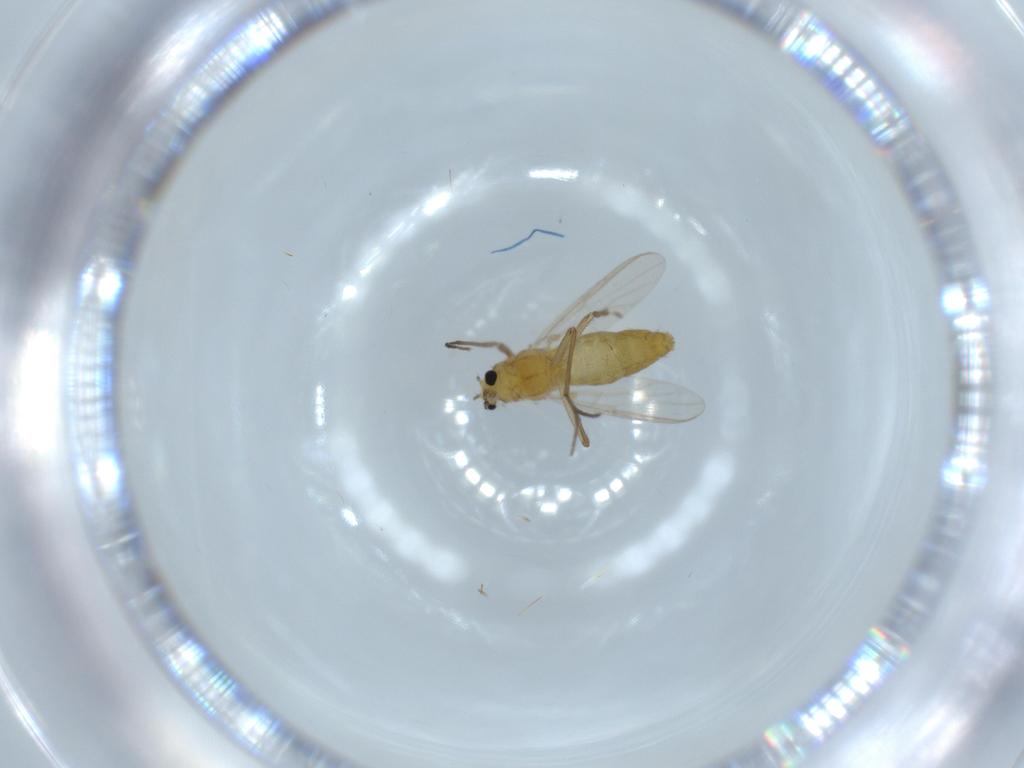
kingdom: Animalia
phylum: Arthropoda
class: Insecta
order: Diptera
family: Chironomidae
